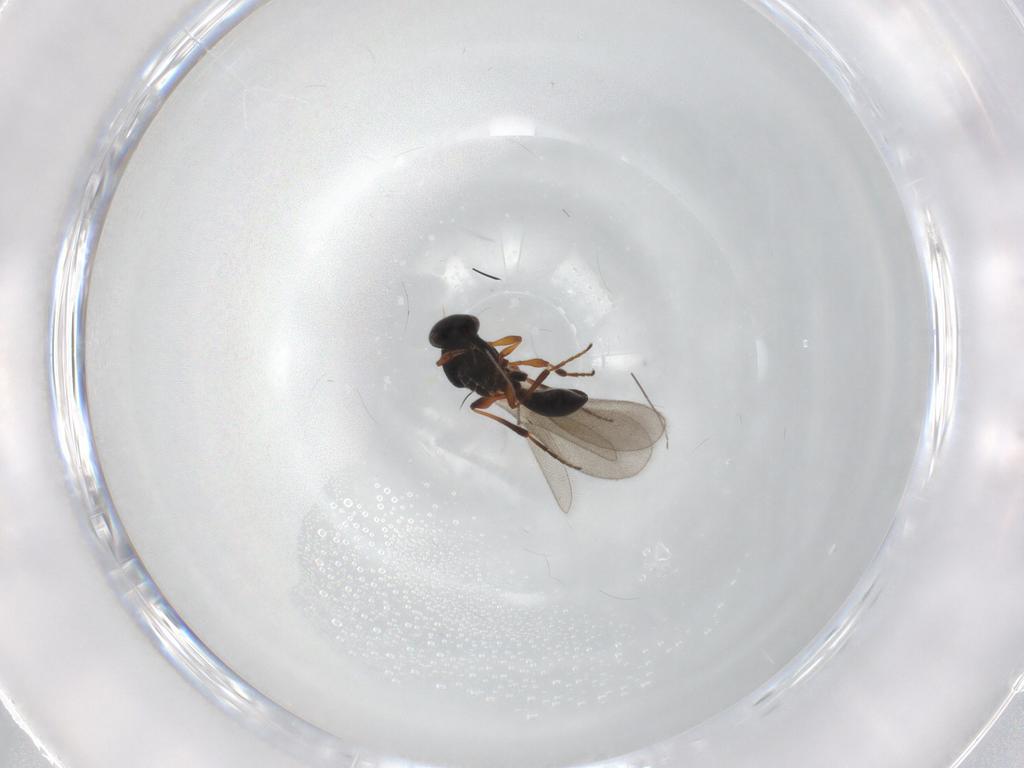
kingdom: Animalia
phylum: Arthropoda
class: Insecta
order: Hymenoptera
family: Platygastridae
